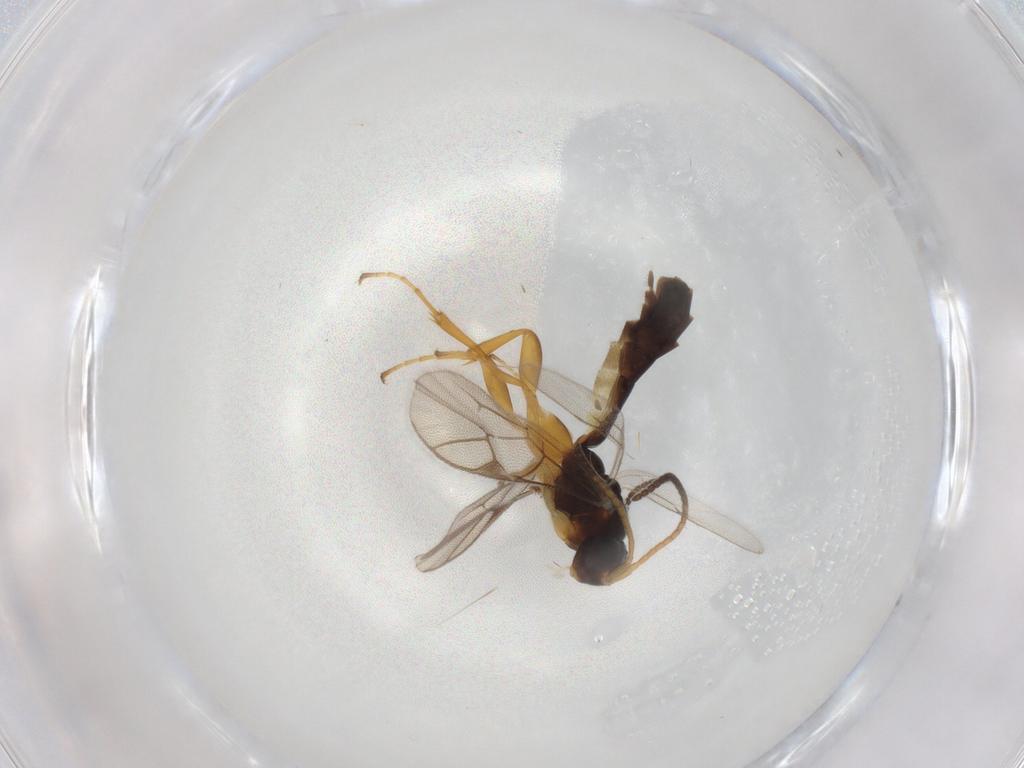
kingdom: Animalia
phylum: Arthropoda
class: Insecta
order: Hymenoptera
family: Ichneumonidae
